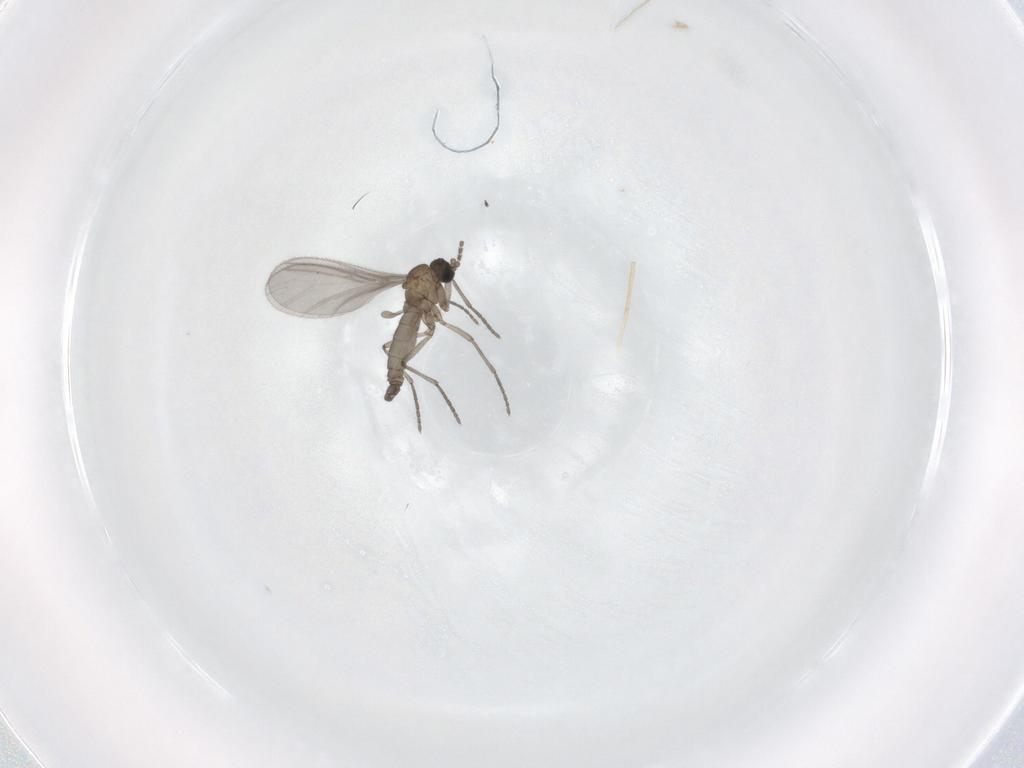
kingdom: Animalia
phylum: Arthropoda
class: Insecta
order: Diptera
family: Sciaridae
